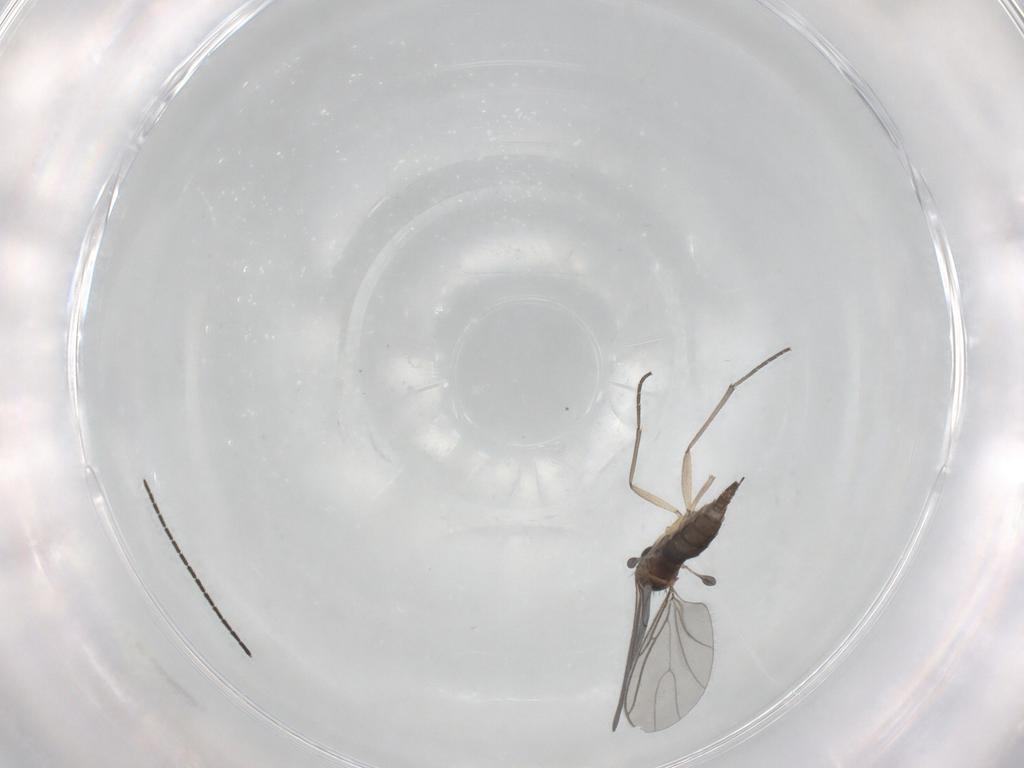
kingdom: Animalia
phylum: Arthropoda
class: Insecta
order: Diptera
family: Sciaridae
